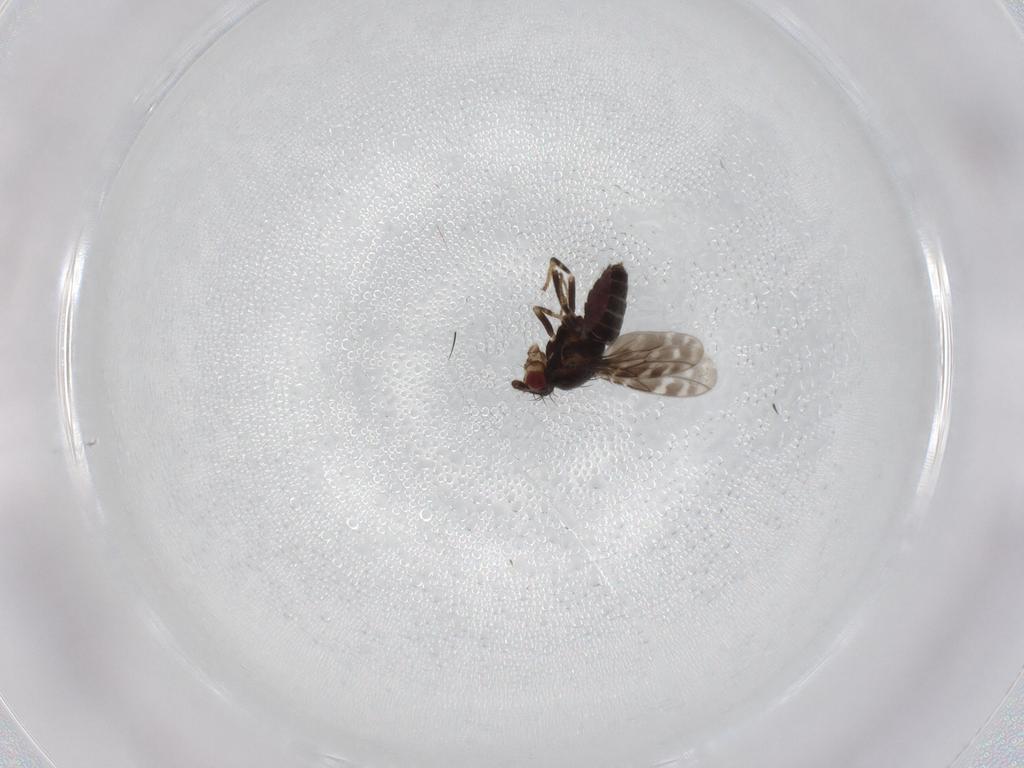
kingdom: Animalia
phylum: Arthropoda
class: Insecta
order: Diptera
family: Sphaeroceridae
